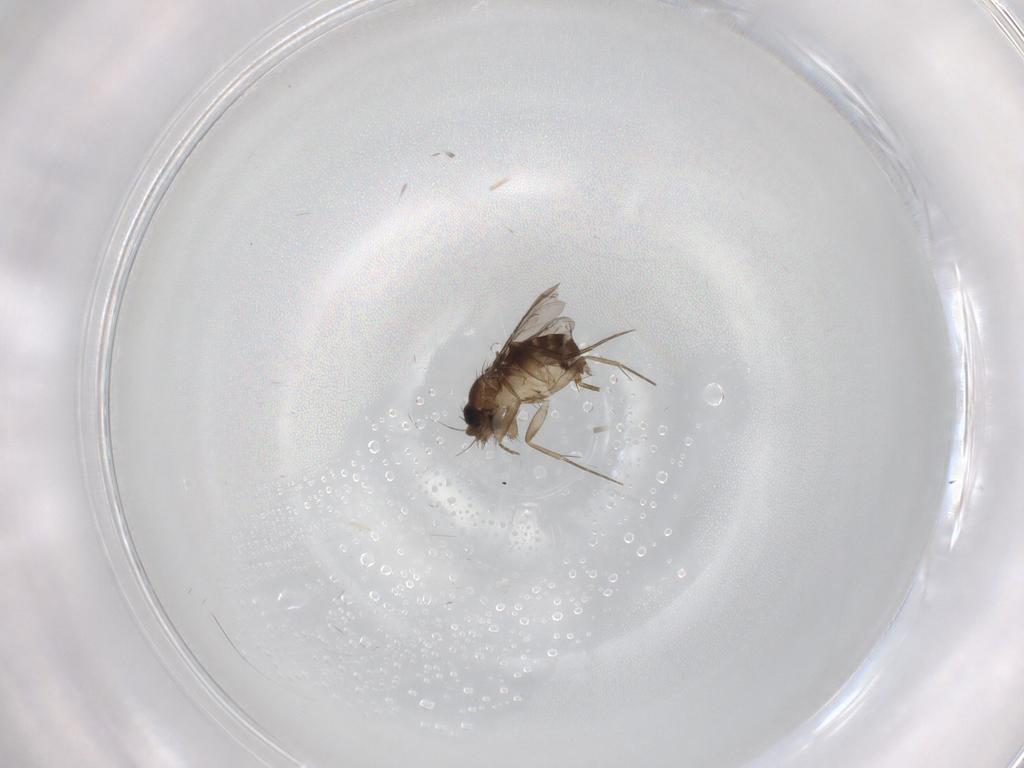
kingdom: Animalia
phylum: Arthropoda
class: Insecta
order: Diptera
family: Phoridae
